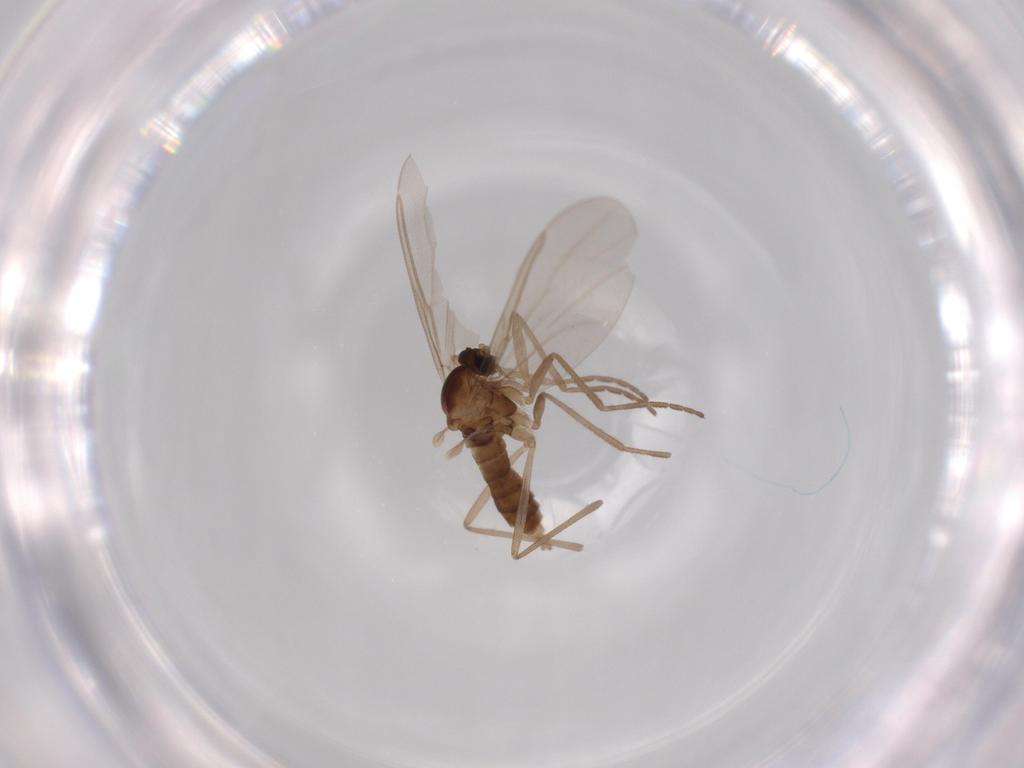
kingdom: Animalia
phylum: Arthropoda
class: Insecta
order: Diptera
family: Cecidomyiidae
